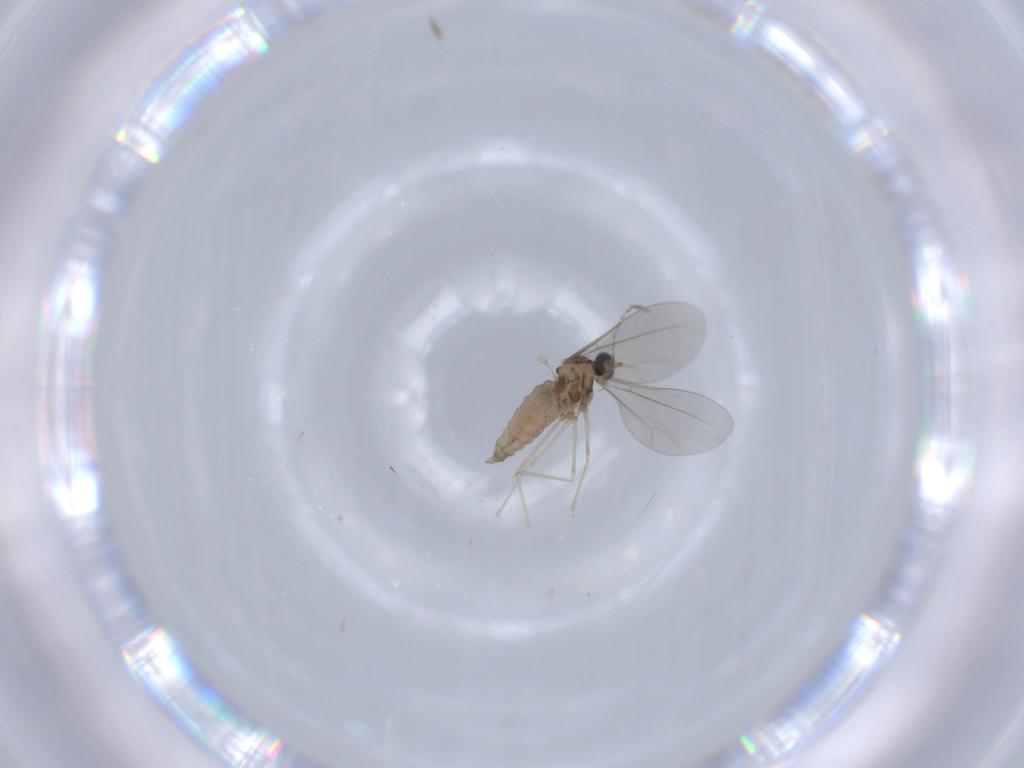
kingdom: Animalia
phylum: Arthropoda
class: Insecta
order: Diptera
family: Cecidomyiidae
